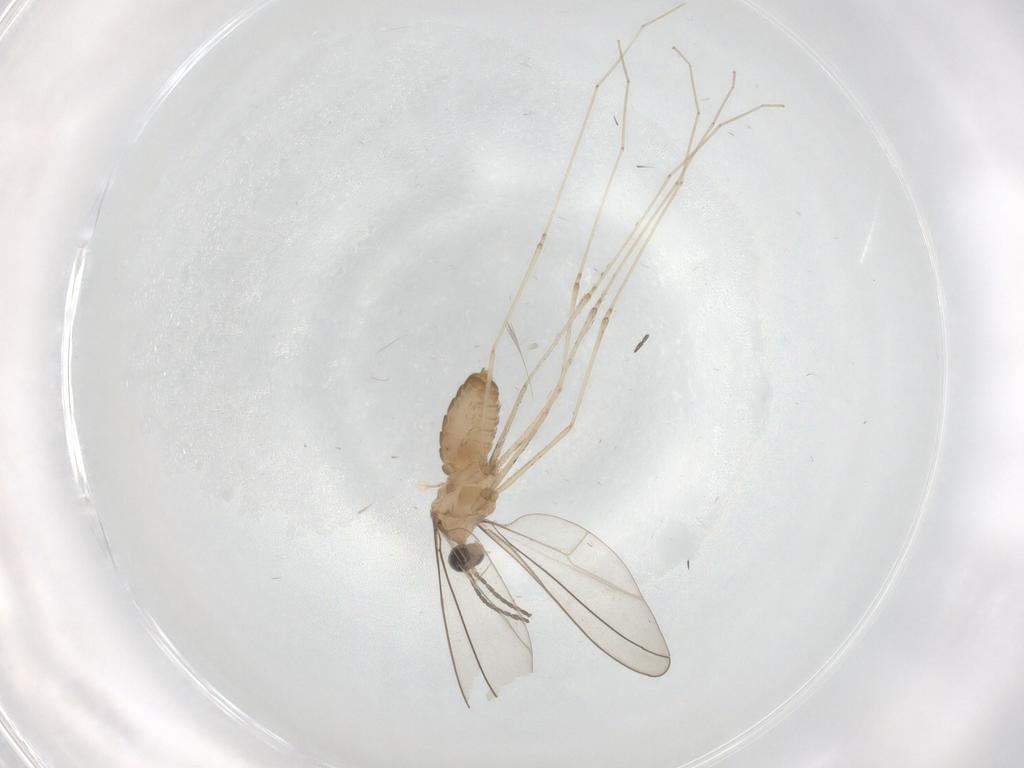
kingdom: Animalia
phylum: Arthropoda
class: Insecta
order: Diptera
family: Cecidomyiidae
